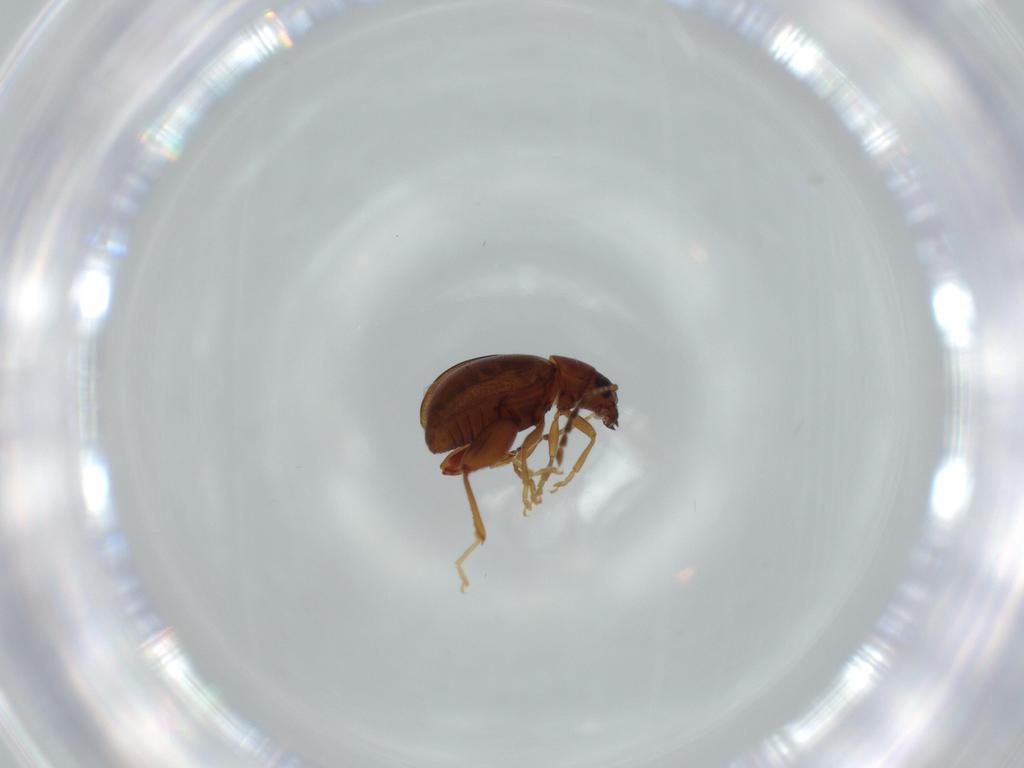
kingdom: Animalia
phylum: Arthropoda
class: Insecta
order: Coleoptera
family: Chrysomelidae
